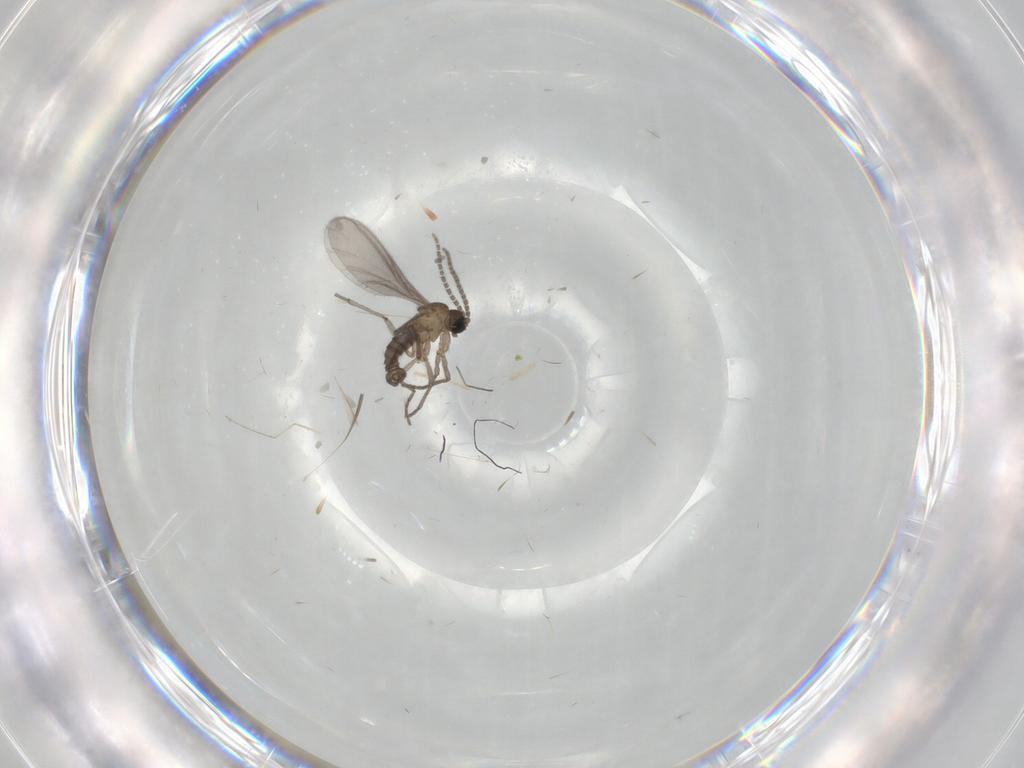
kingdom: Animalia
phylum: Arthropoda
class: Insecta
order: Diptera
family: Sciaridae
